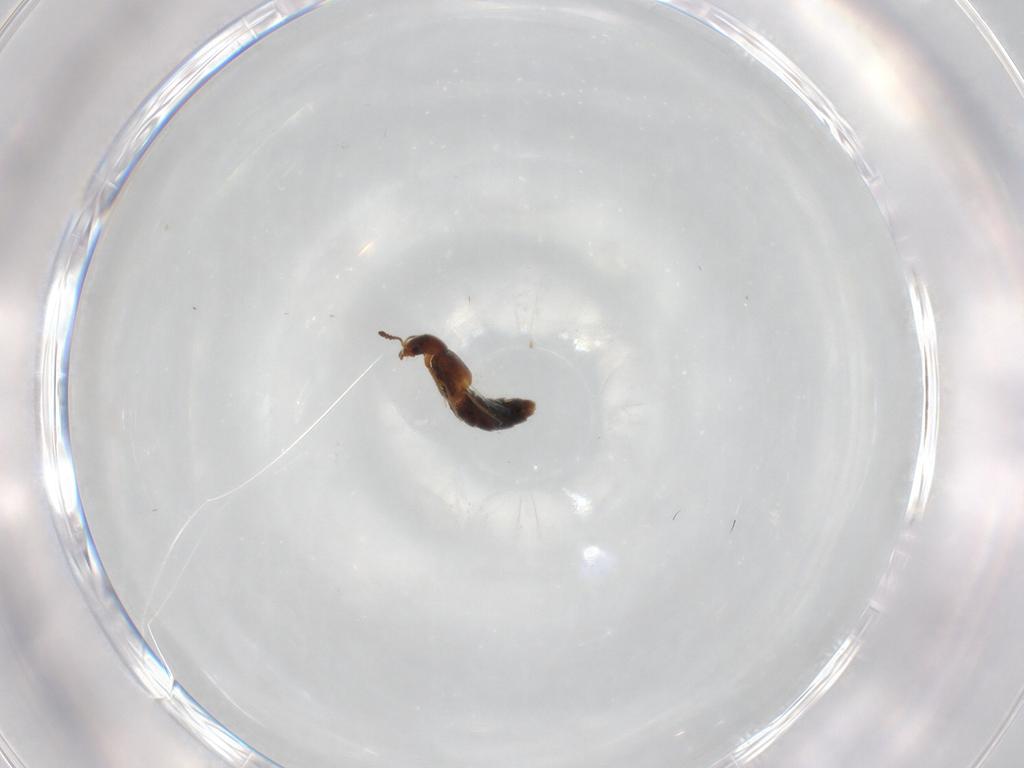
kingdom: Animalia
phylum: Arthropoda
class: Insecta
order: Coleoptera
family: Staphylinidae
